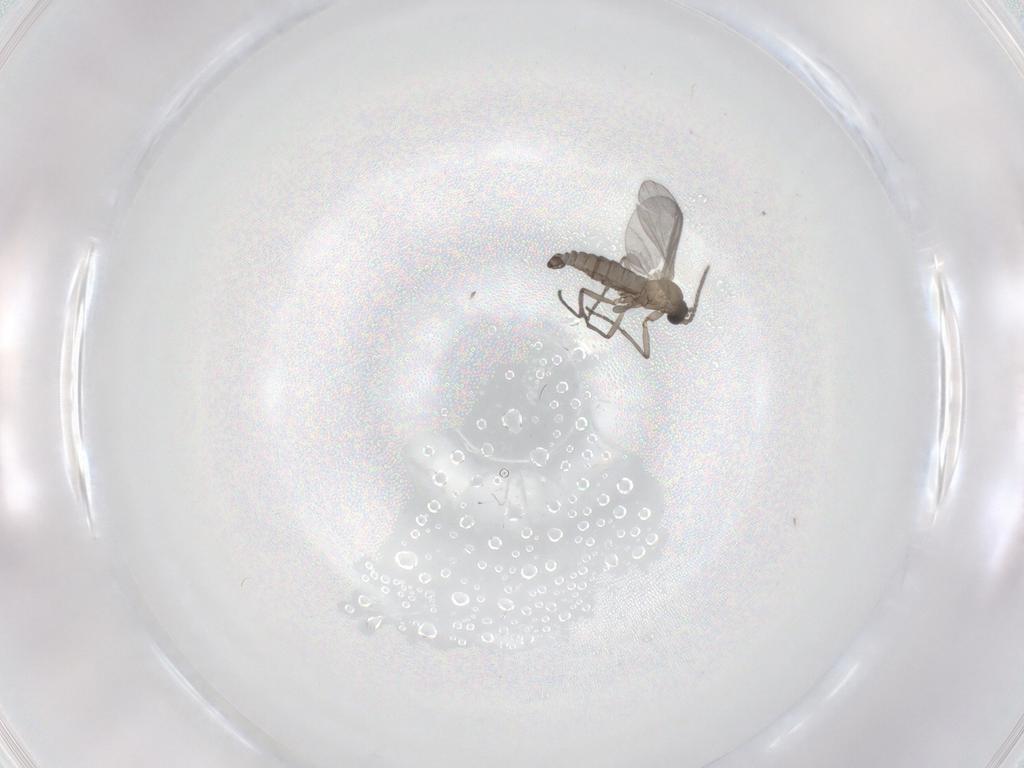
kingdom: Animalia
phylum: Arthropoda
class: Insecta
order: Diptera
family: Sciaridae
